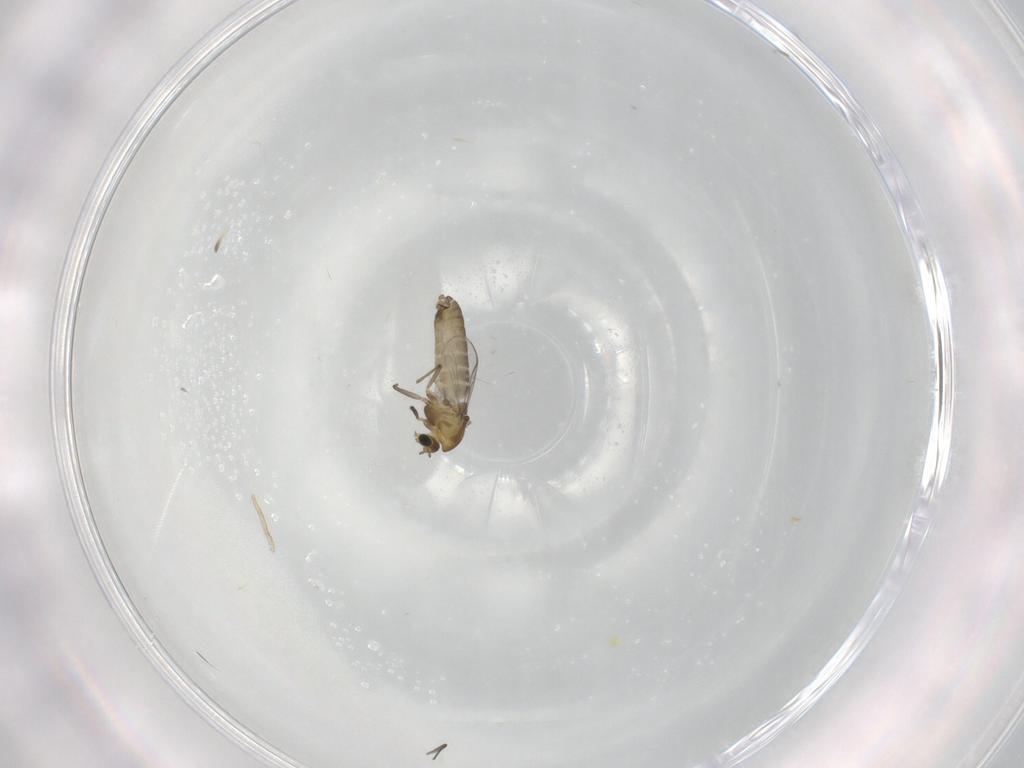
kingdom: Animalia
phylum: Arthropoda
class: Insecta
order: Diptera
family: Chironomidae
